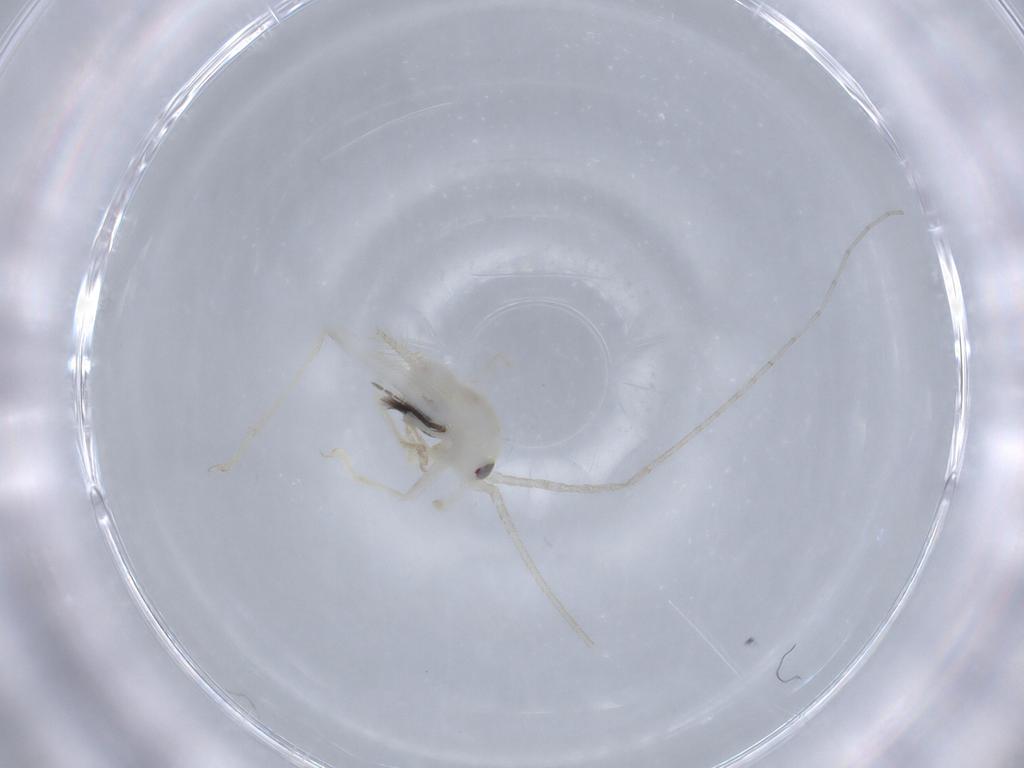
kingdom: Animalia
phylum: Arthropoda
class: Insecta
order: Orthoptera
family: Trigonidiidae
